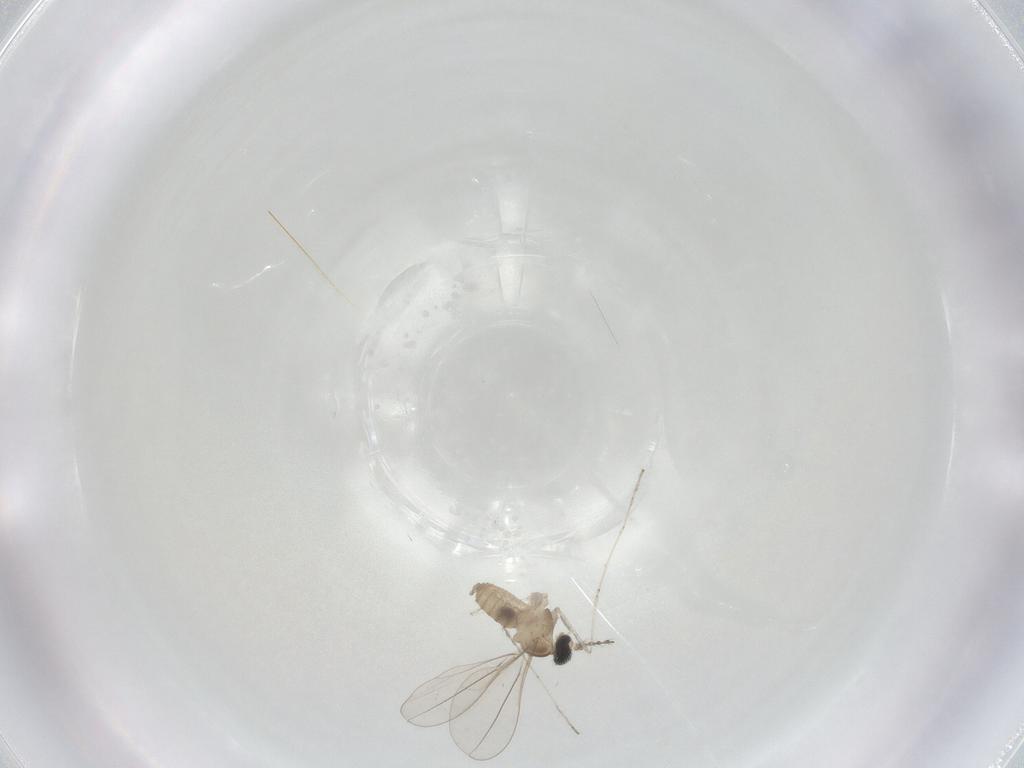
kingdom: Animalia
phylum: Arthropoda
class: Insecta
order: Diptera
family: Cecidomyiidae
